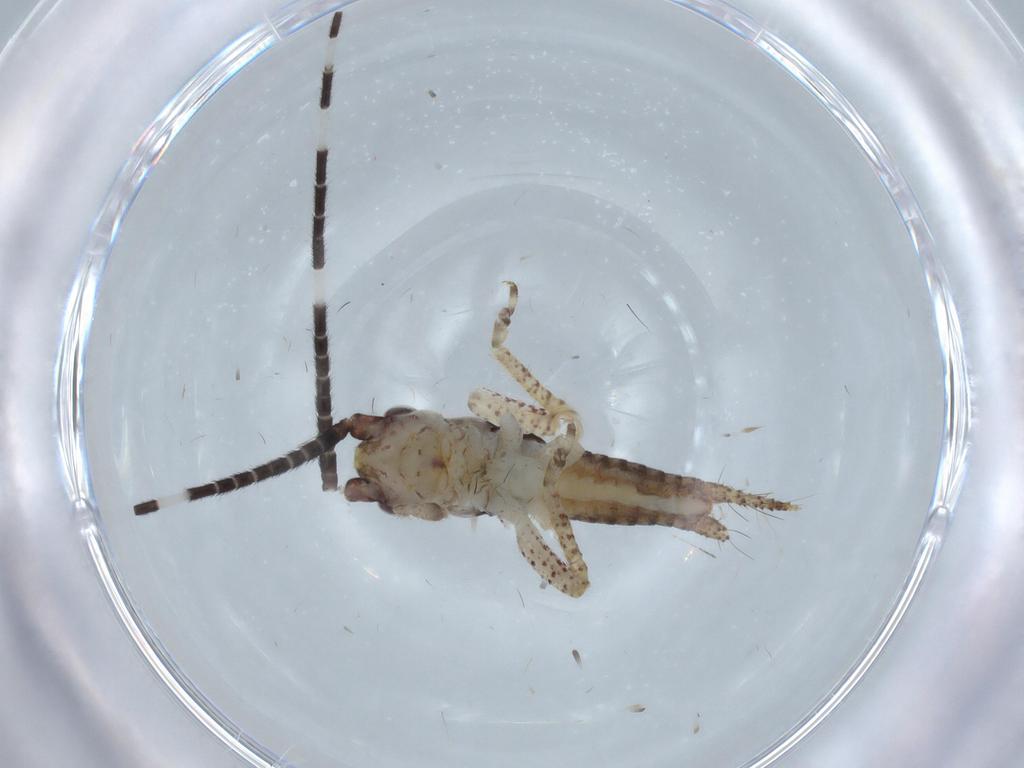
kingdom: Animalia
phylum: Arthropoda
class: Insecta
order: Orthoptera
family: Gryllidae
